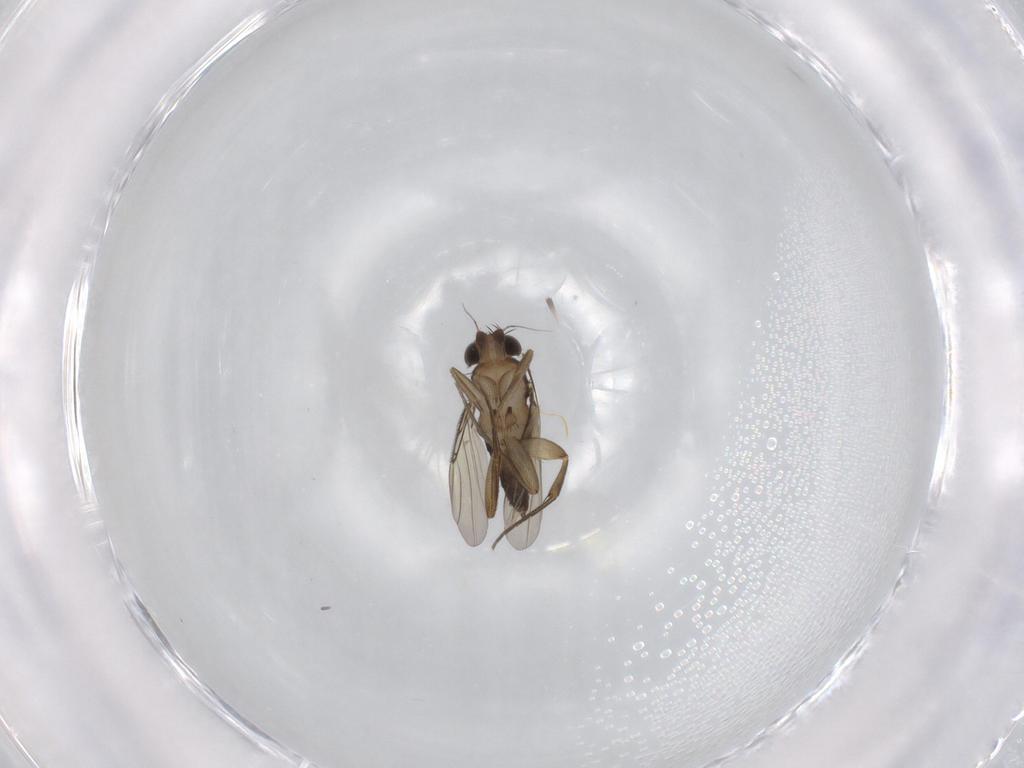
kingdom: Animalia
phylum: Arthropoda
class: Insecta
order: Diptera
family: Phoridae
